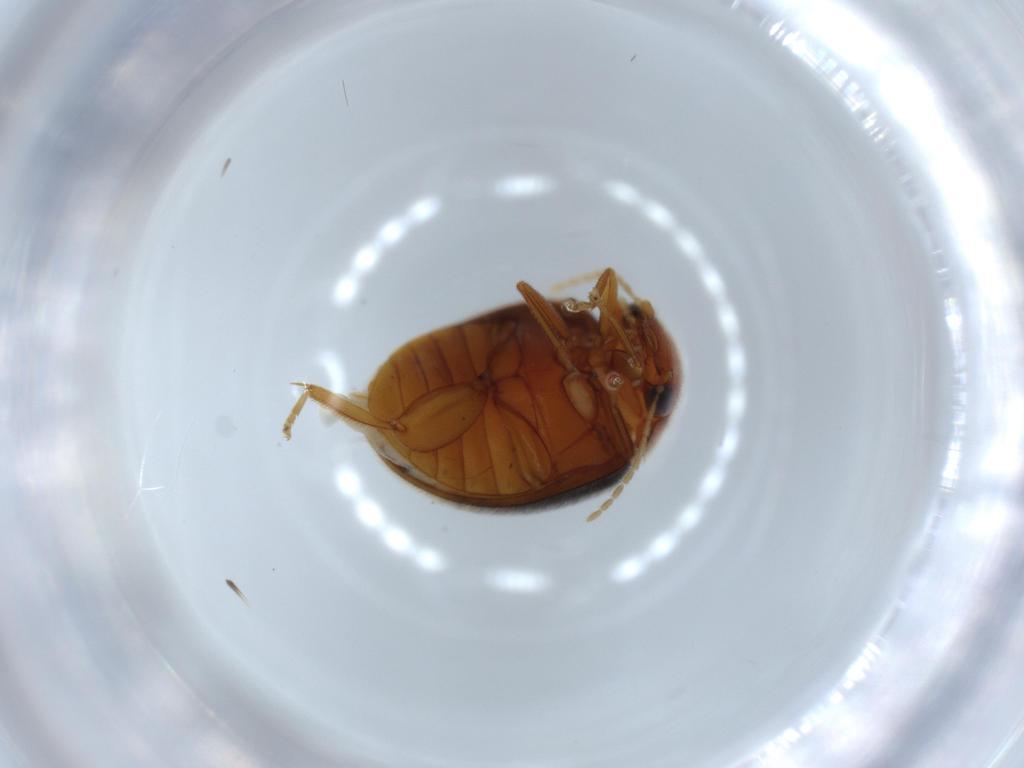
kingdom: Animalia
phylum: Arthropoda
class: Insecta
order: Coleoptera
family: Scirtidae
